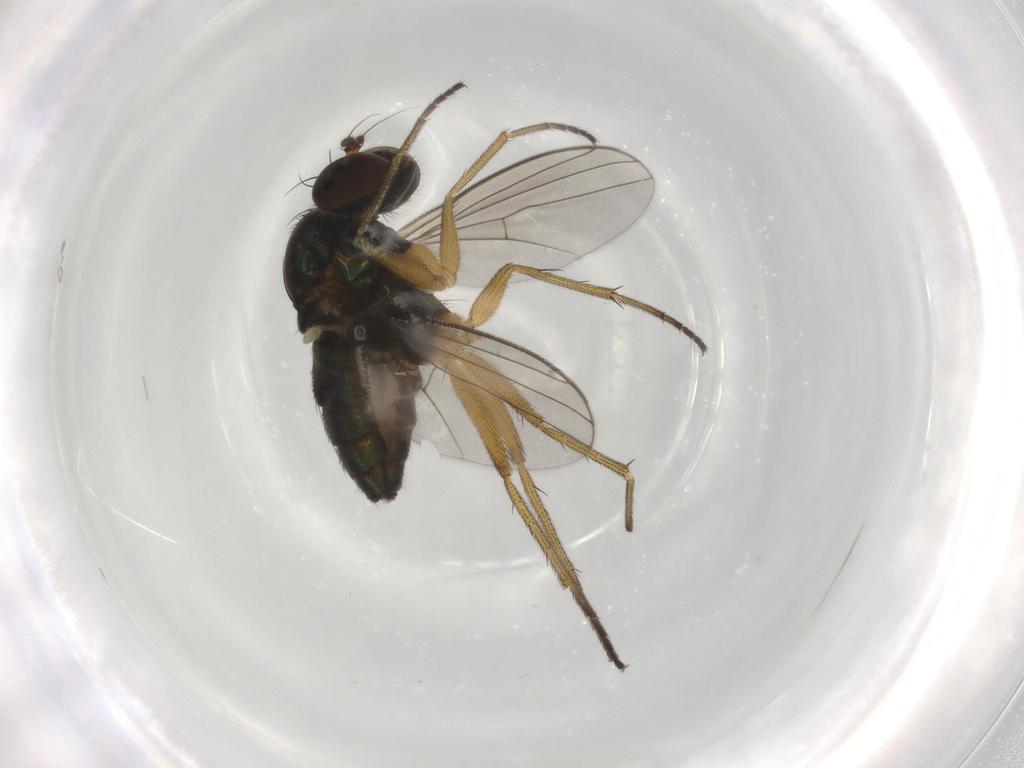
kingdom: Animalia
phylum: Arthropoda
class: Insecta
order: Diptera
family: Dolichopodidae
